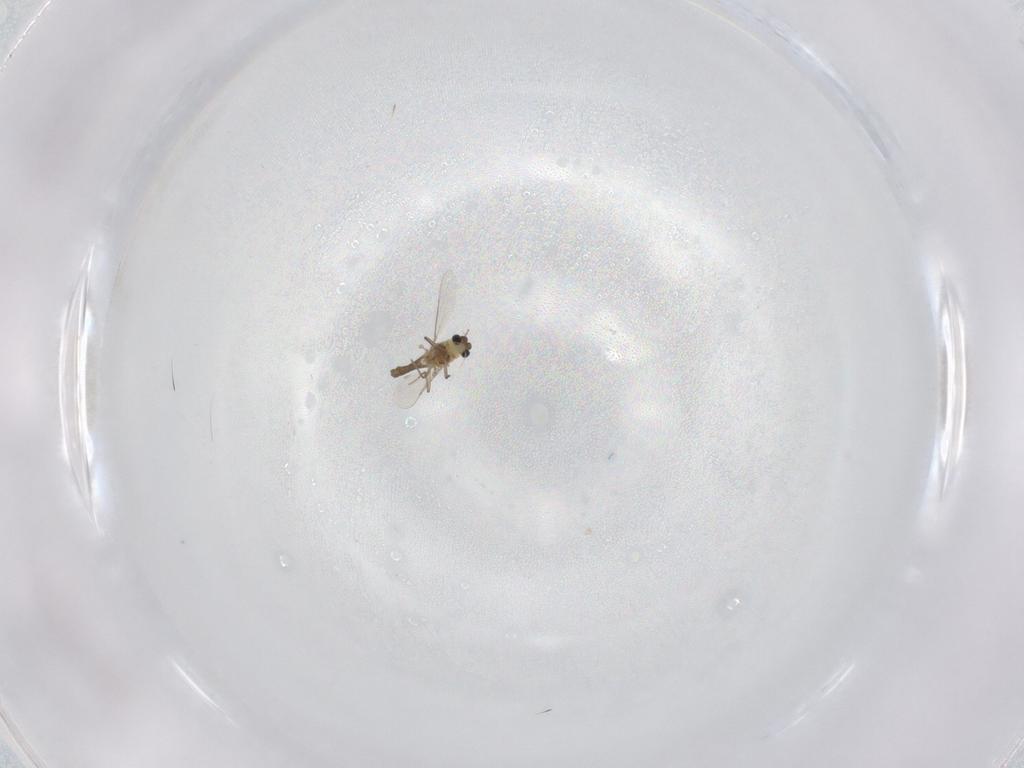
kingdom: Animalia
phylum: Arthropoda
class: Insecta
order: Diptera
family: Chironomidae
